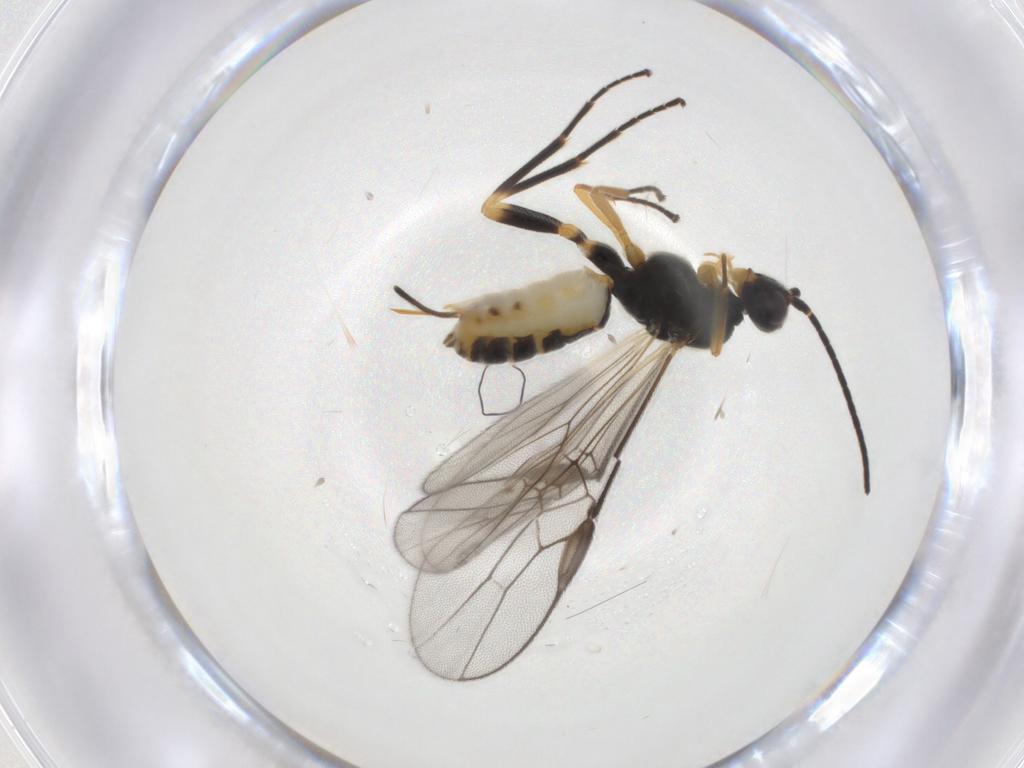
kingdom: Animalia
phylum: Arthropoda
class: Insecta
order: Hymenoptera
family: Braconidae
